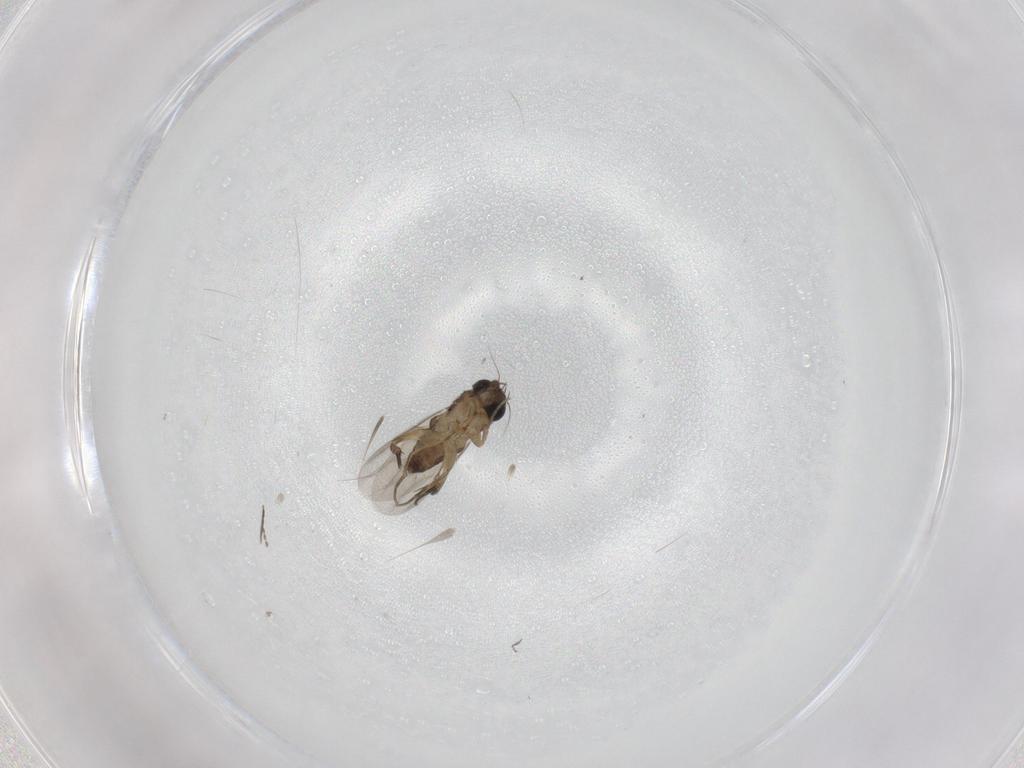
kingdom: Animalia
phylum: Arthropoda
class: Insecta
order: Diptera
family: Phoridae
